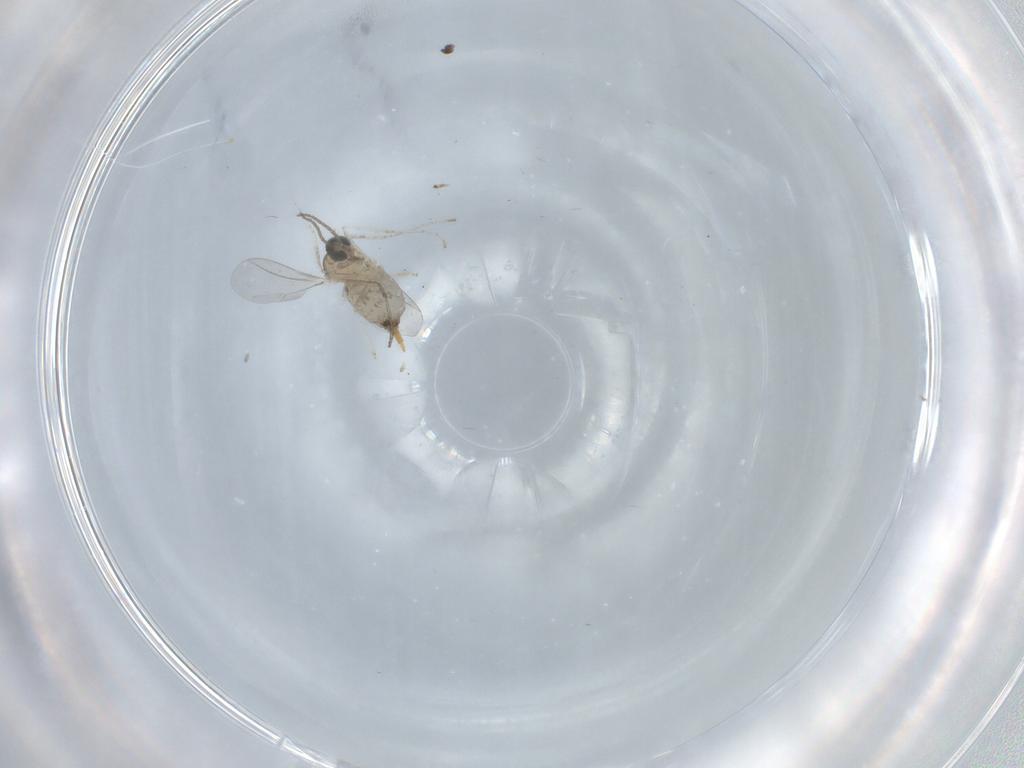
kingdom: Animalia
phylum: Arthropoda
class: Insecta
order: Diptera
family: Cecidomyiidae
